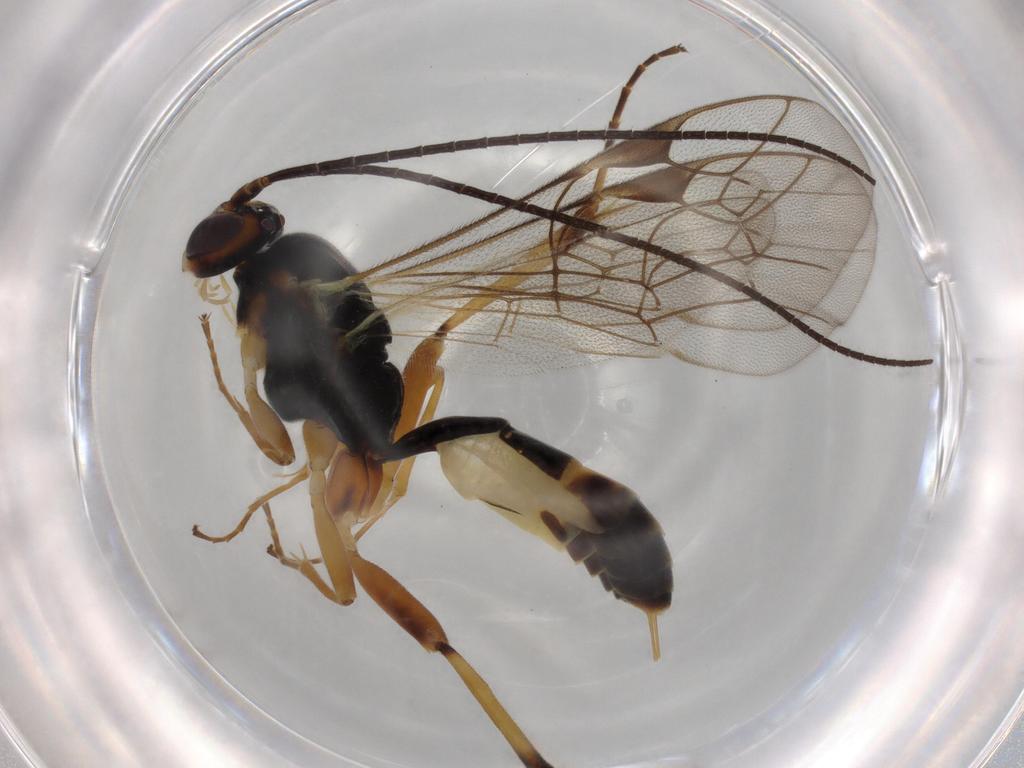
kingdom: Animalia
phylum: Arthropoda
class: Insecta
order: Hymenoptera
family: Ichneumonidae
